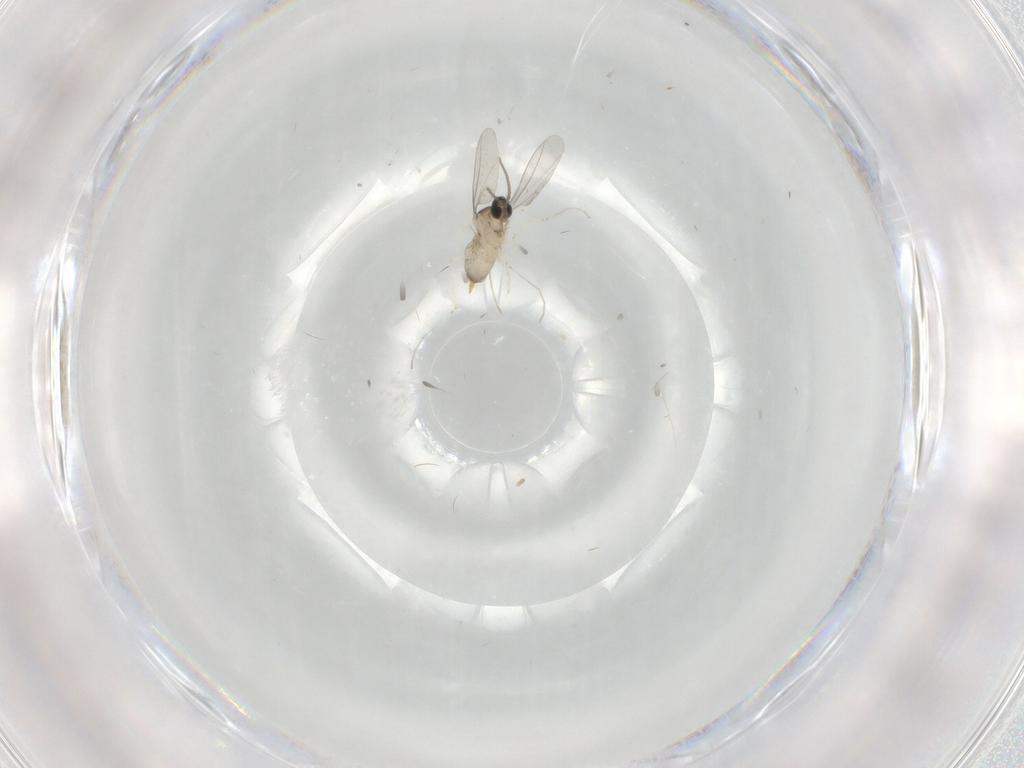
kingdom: Animalia
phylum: Arthropoda
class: Insecta
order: Diptera
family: Cecidomyiidae
